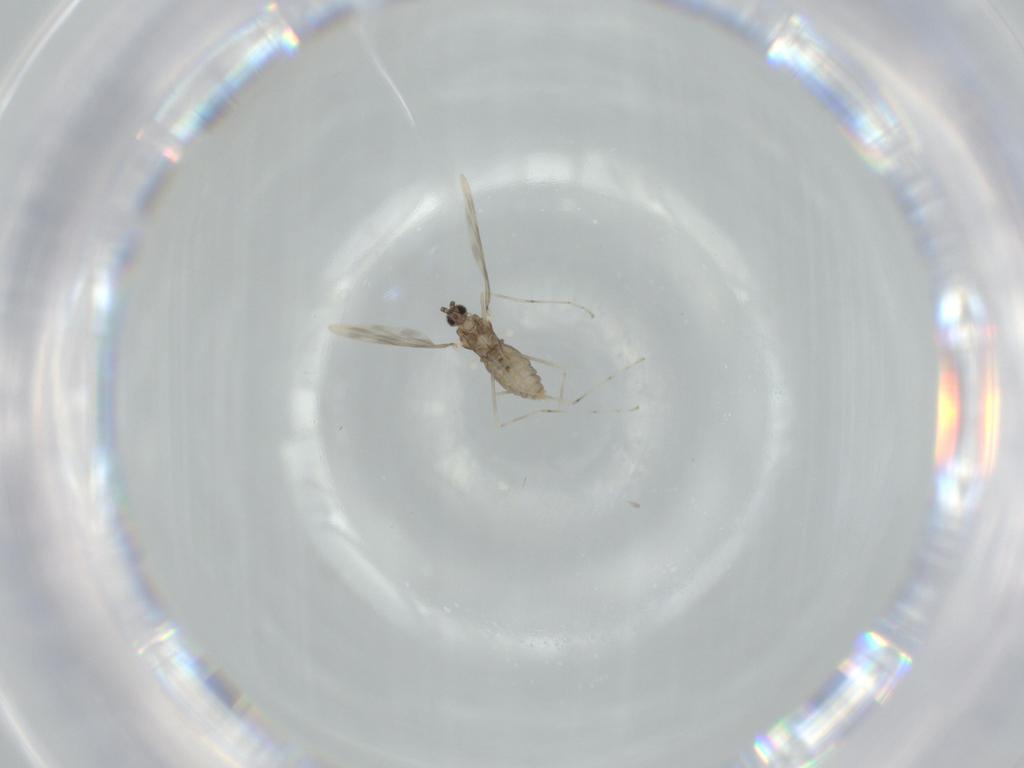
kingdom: Animalia
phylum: Arthropoda
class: Insecta
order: Diptera
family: Cecidomyiidae
